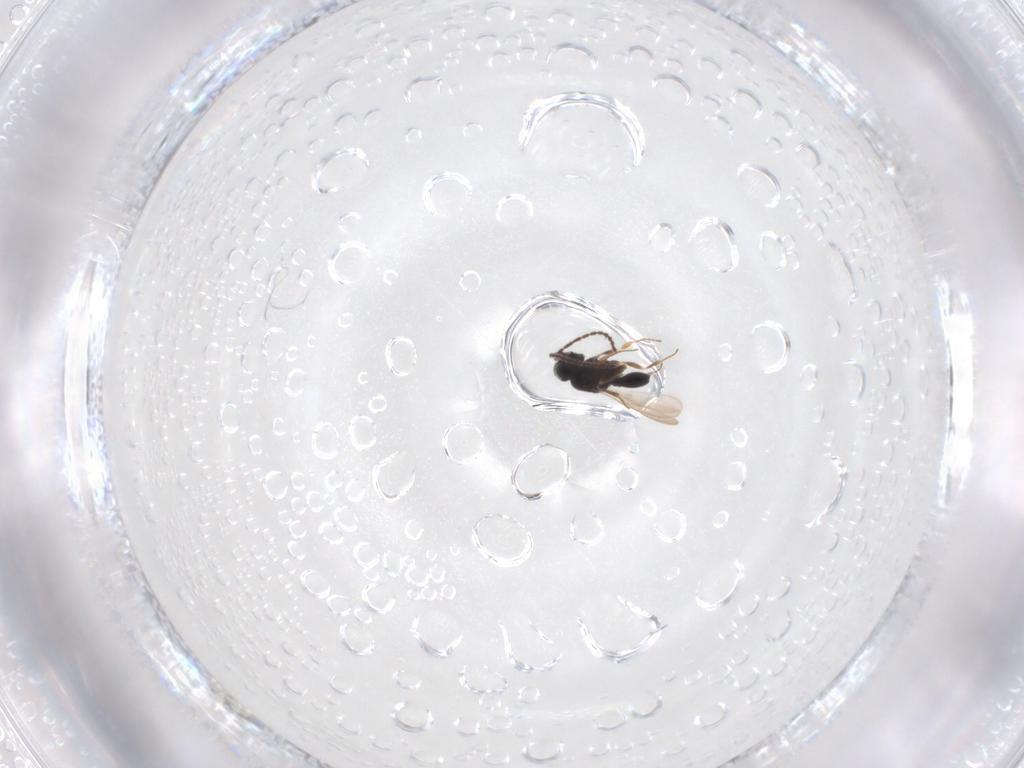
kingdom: Animalia
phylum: Arthropoda
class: Insecta
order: Hymenoptera
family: Scelionidae
